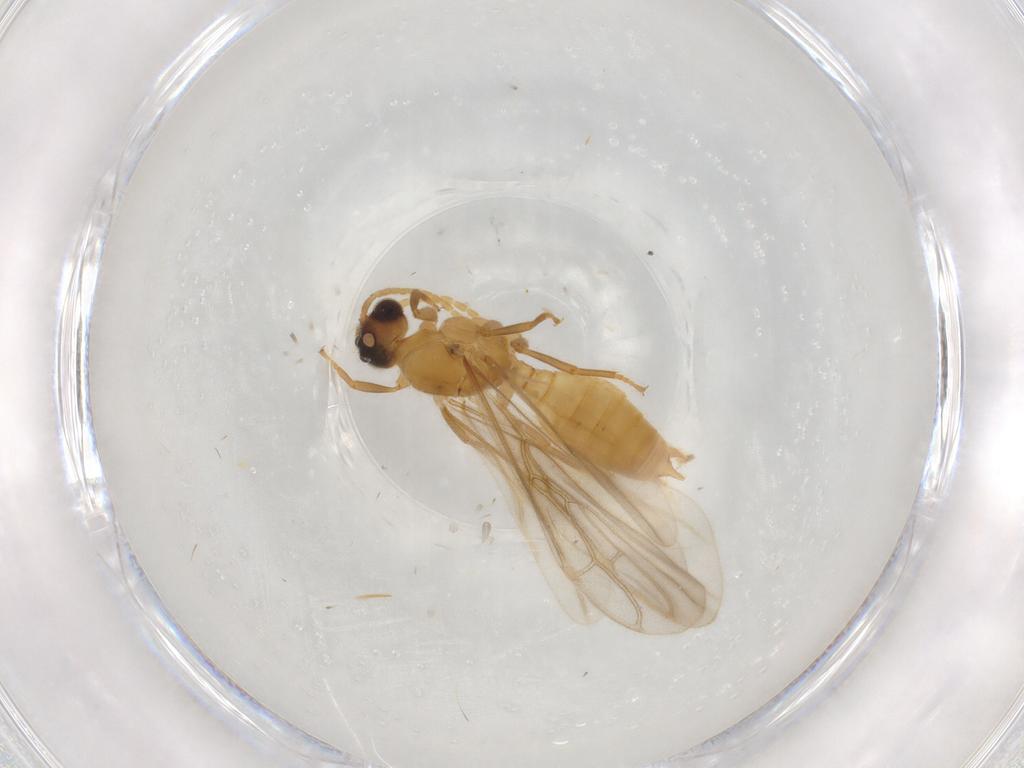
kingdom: Animalia
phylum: Arthropoda
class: Insecta
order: Hymenoptera
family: Formicidae
